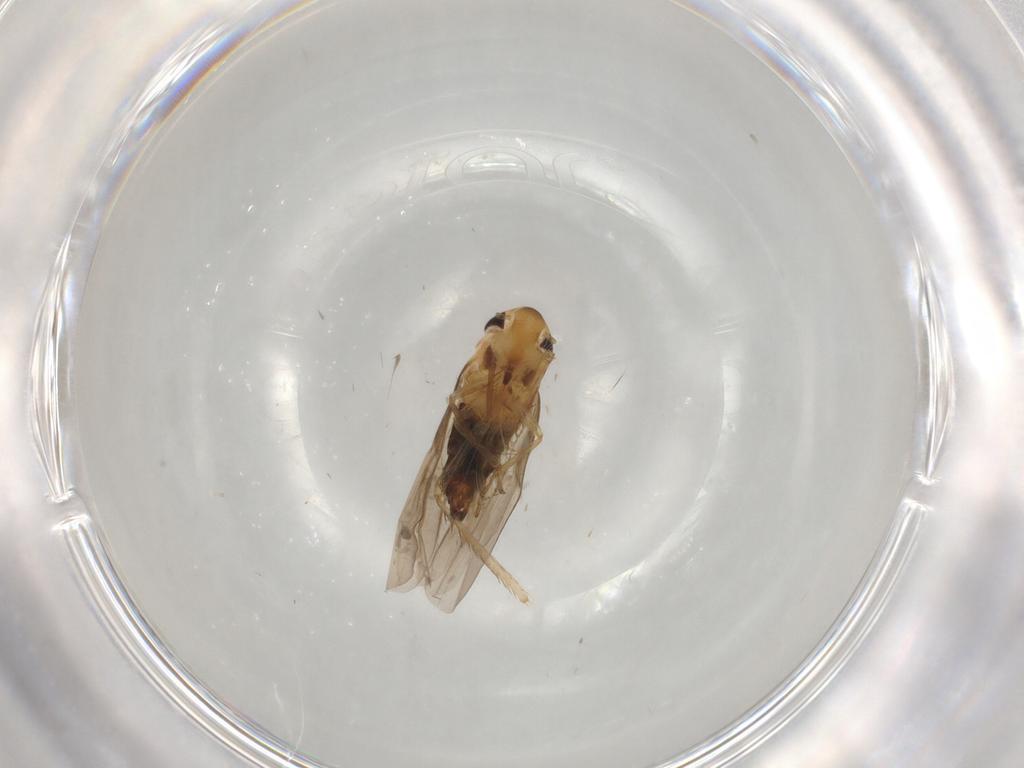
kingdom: Animalia
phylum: Arthropoda
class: Insecta
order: Hemiptera
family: Cicadellidae
